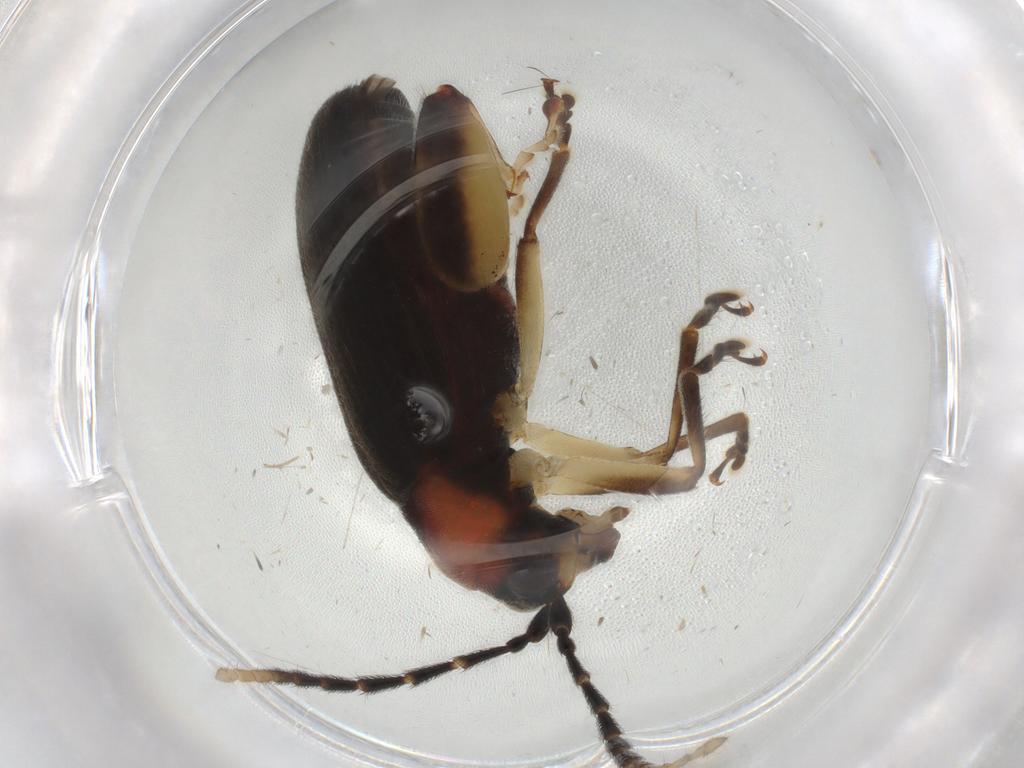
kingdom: Animalia
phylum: Arthropoda
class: Insecta
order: Coleoptera
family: Chrysomelidae
